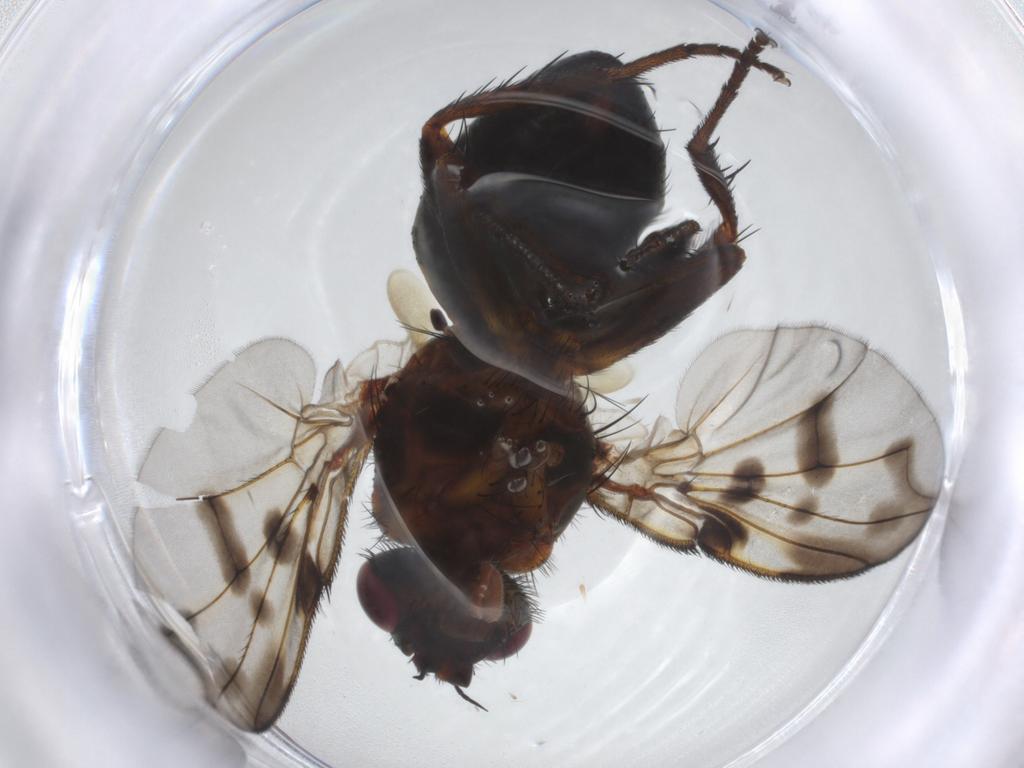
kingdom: Animalia
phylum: Arthropoda
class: Insecta
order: Diptera
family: Tachinidae
